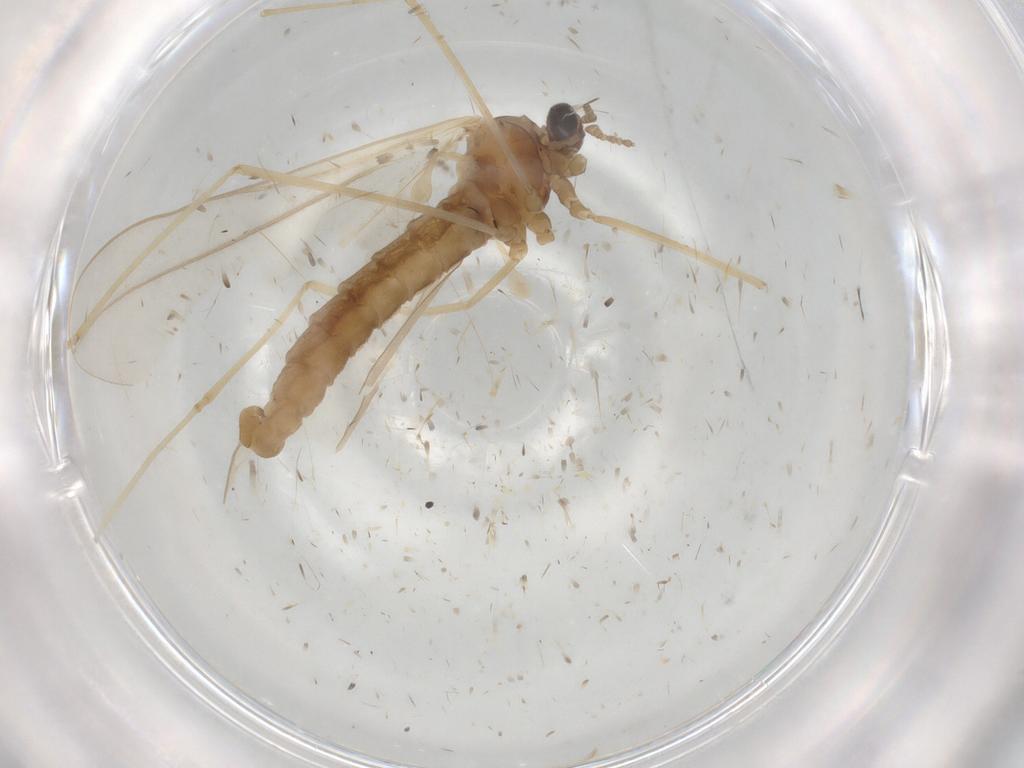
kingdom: Animalia
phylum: Arthropoda
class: Insecta
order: Diptera
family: Cecidomyiidae
